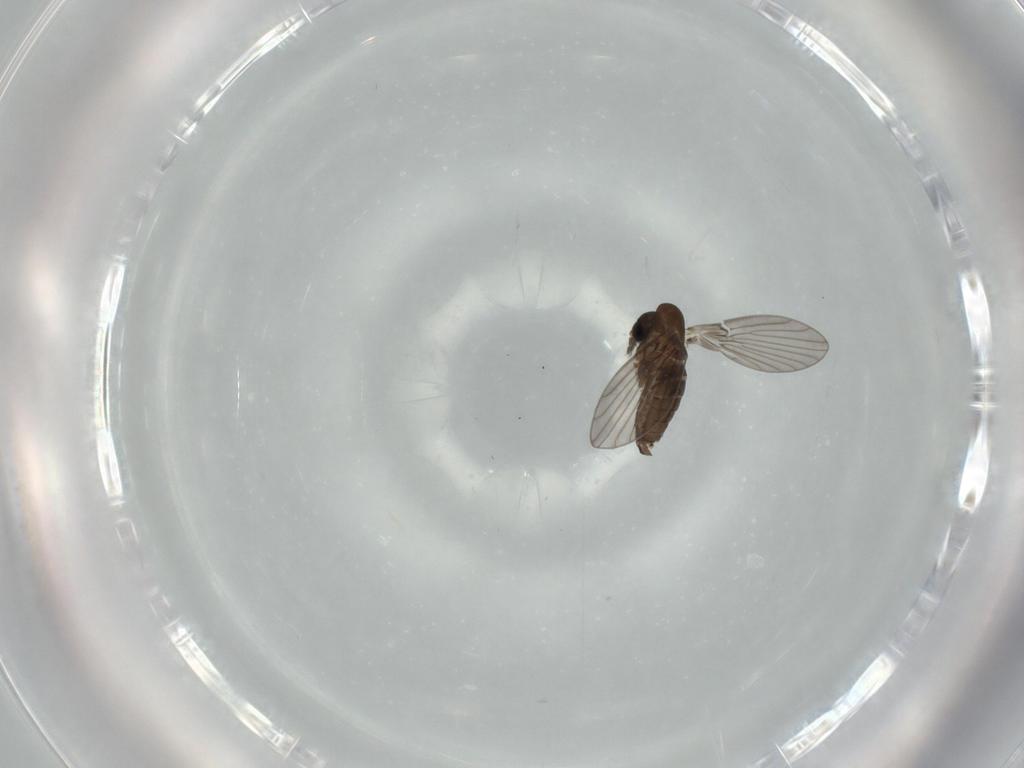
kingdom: Animalia
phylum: Arthropoda
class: Insecta
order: Diptera
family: Psychodidae
